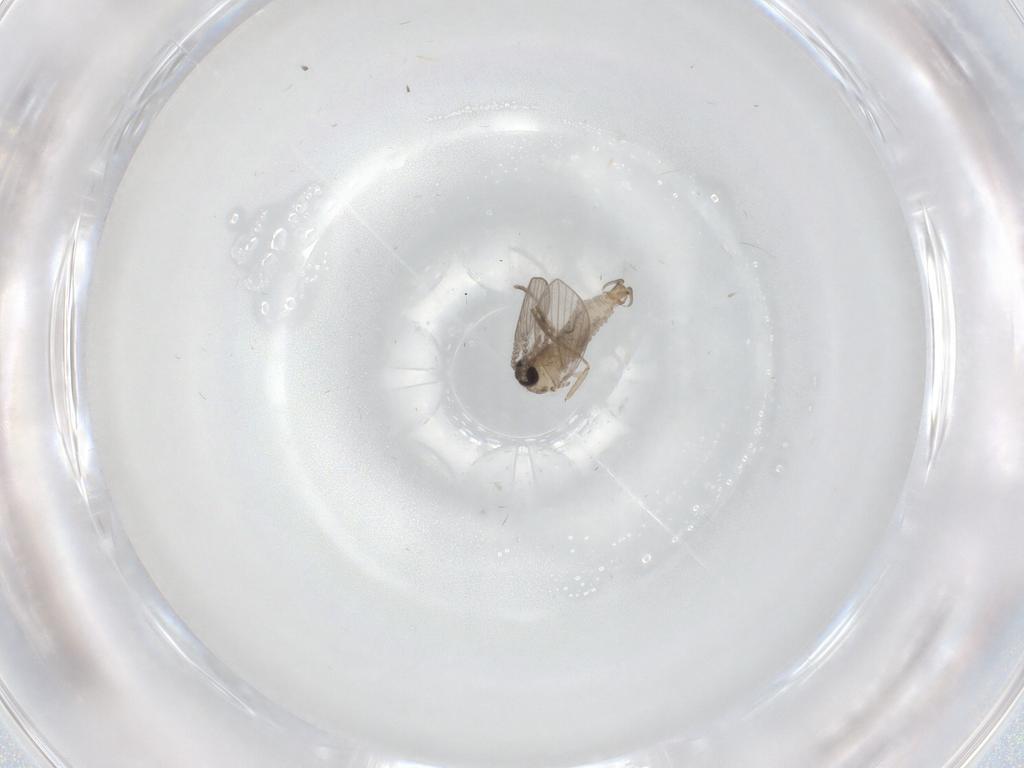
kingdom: Animalia
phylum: Arthropoda
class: Insecta
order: Diptera
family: Psychodidae
